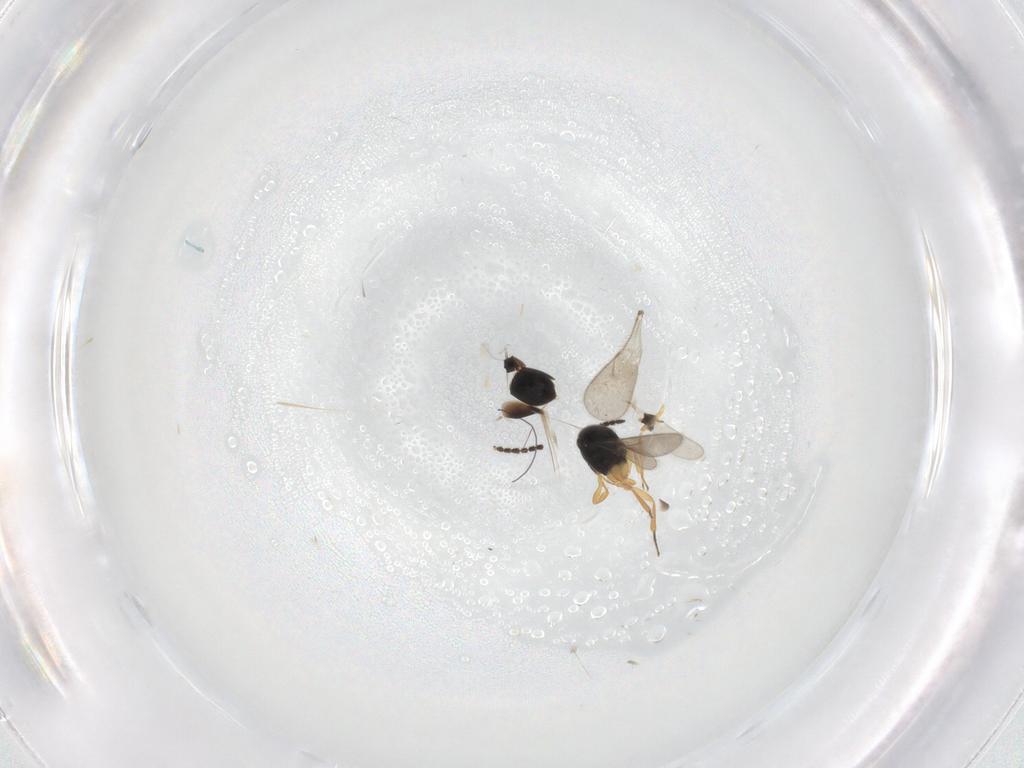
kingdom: Animalia
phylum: Arthropoda
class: Insecta
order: Hymenoptera
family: Scelionidae
